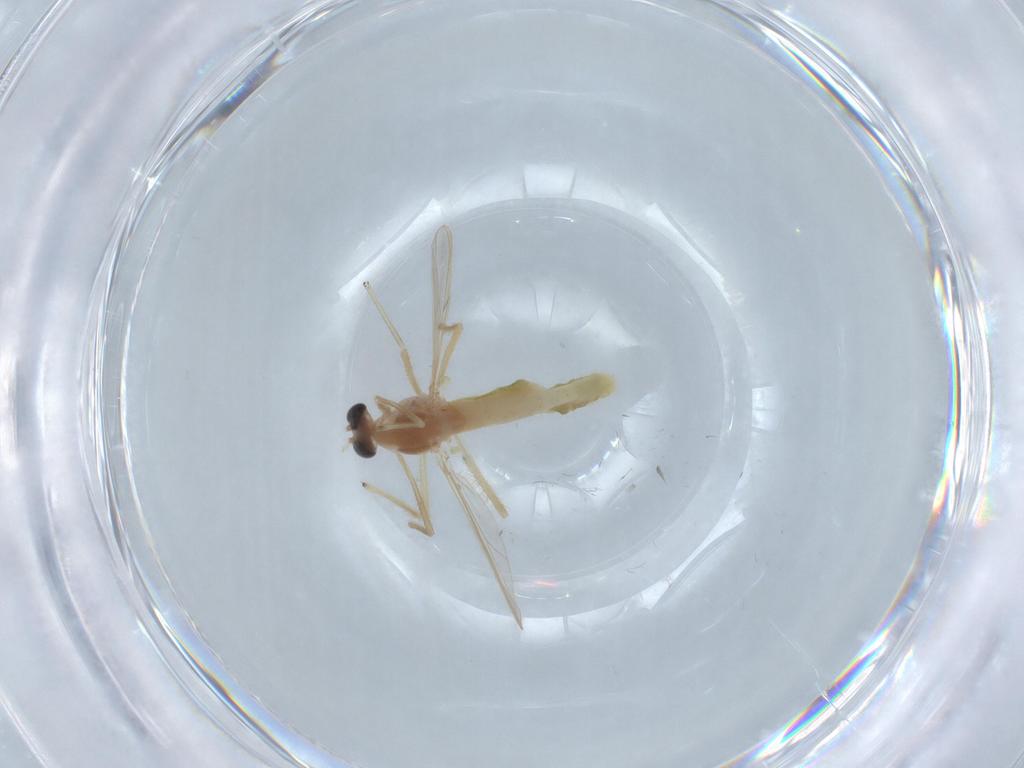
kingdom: Animalia
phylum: Arthropoda
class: Insecta
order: Diptera
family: Chironomidae
